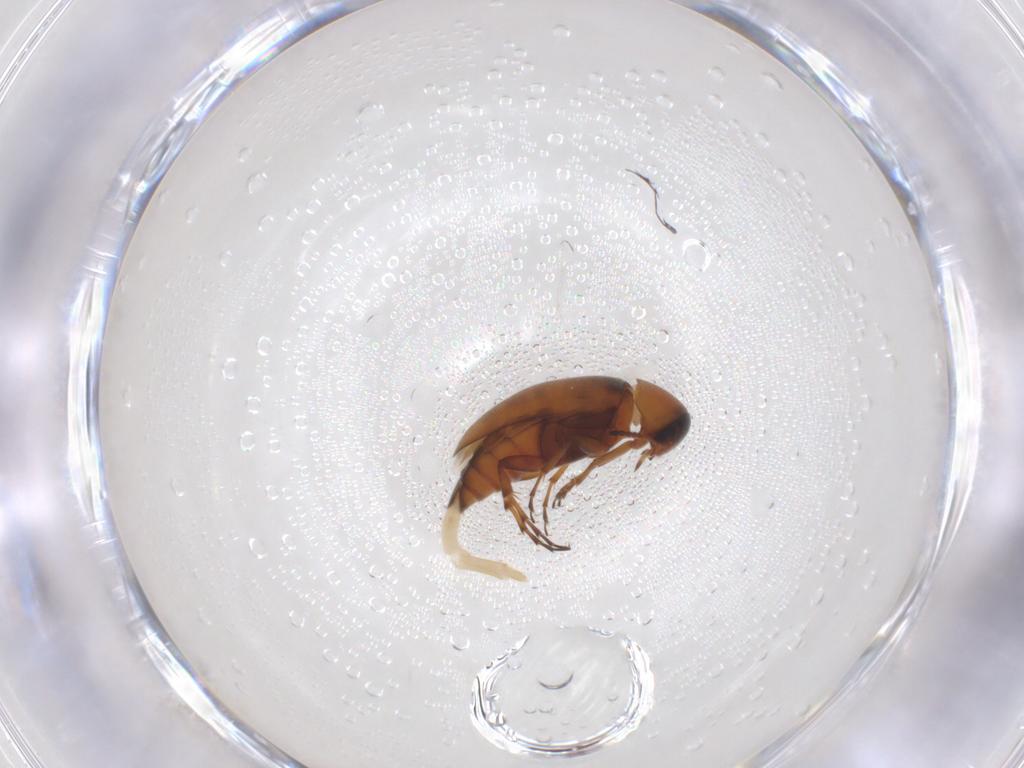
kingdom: Animalia
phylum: Arthropoda
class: Insecta
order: Coleoptera
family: Scraptiidae
